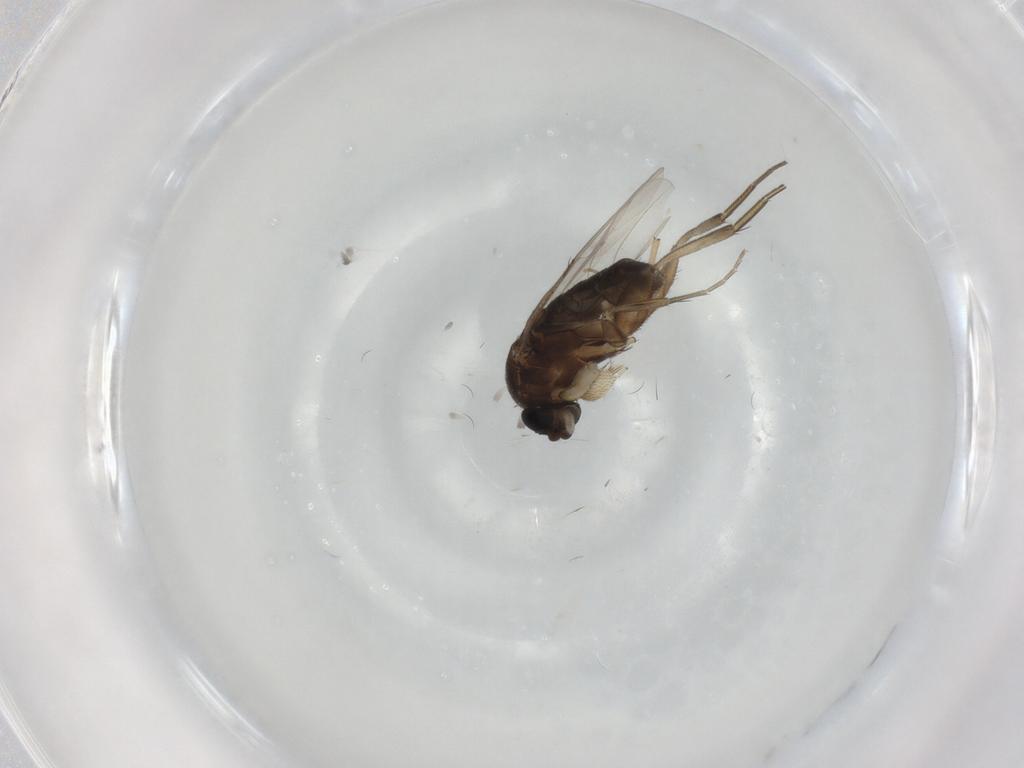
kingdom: Animalia
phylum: Arthropoda
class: Insecta
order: Diptera
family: Phoridae
